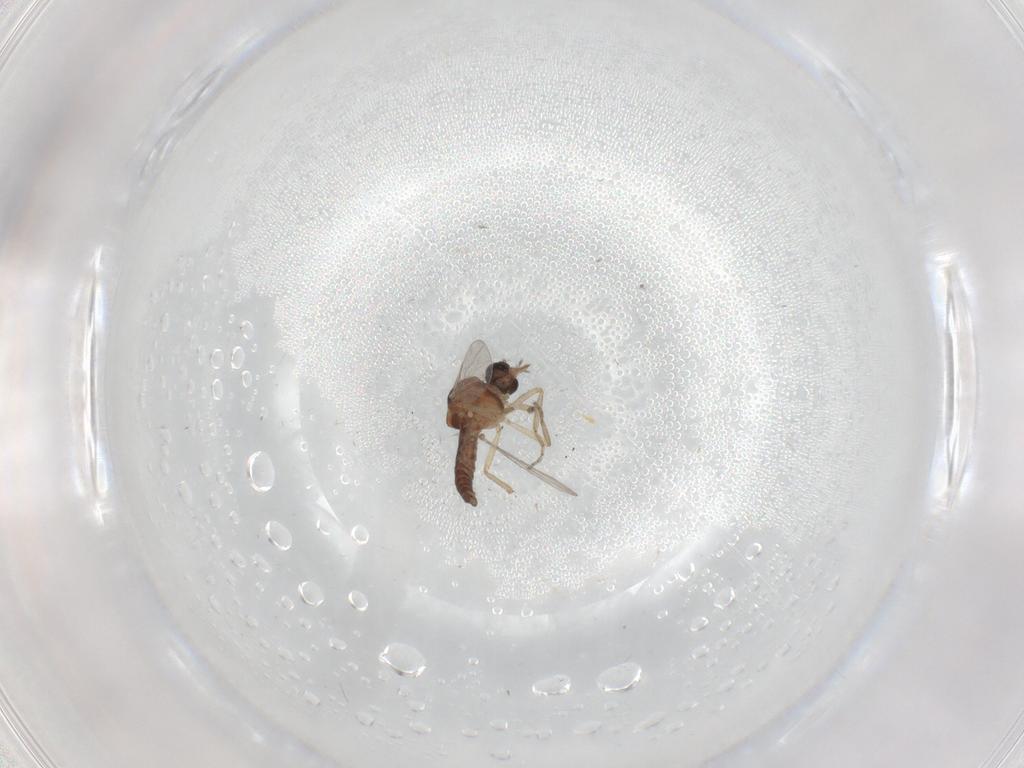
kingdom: Animalia
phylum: Arthropoda
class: Insecta
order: Diptera
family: Ceratopogonidae
